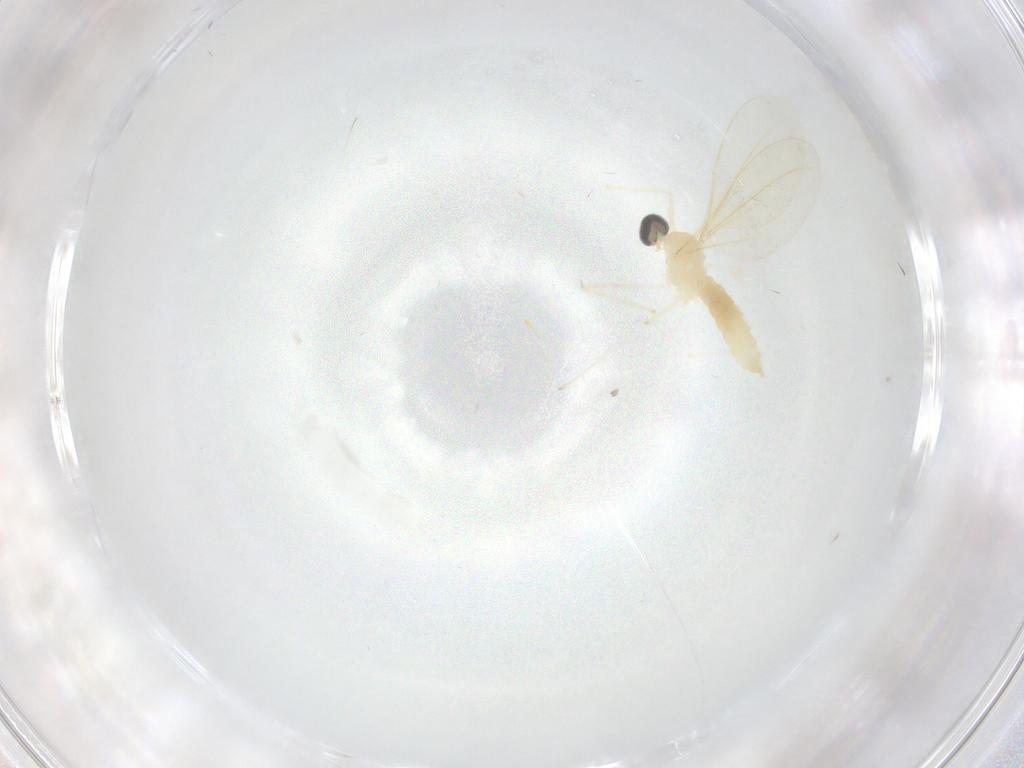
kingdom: Animalia
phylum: Arthropoda
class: Insecta
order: Diptera
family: Cecidomyiidae
